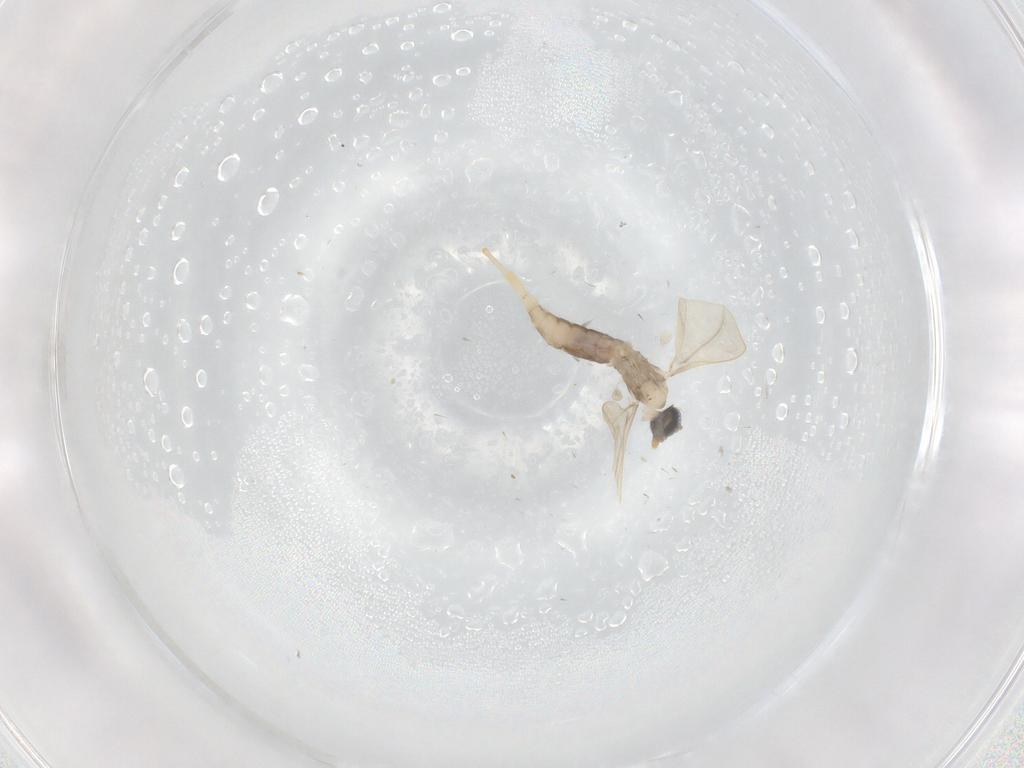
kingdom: Animalia
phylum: Arthropoda
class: Insecta
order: Diptera
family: Cecidomyiidae
